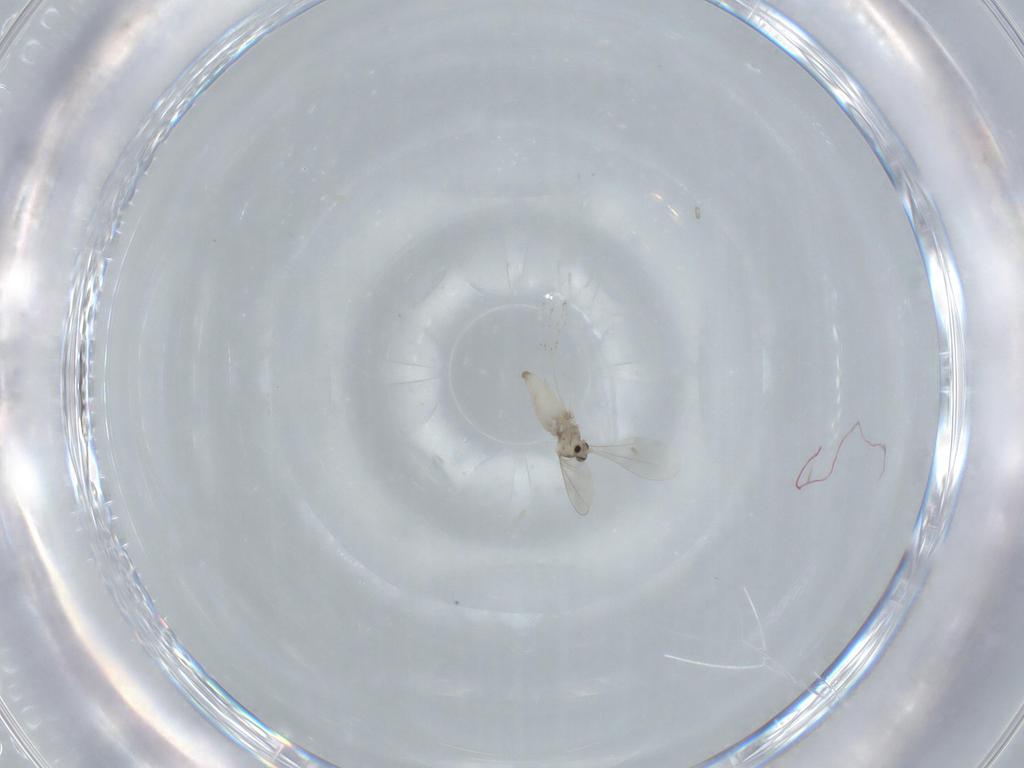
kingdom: Animalia
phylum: Arthropoda
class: Insecta
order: Diptera
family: Cecidomyiidae
